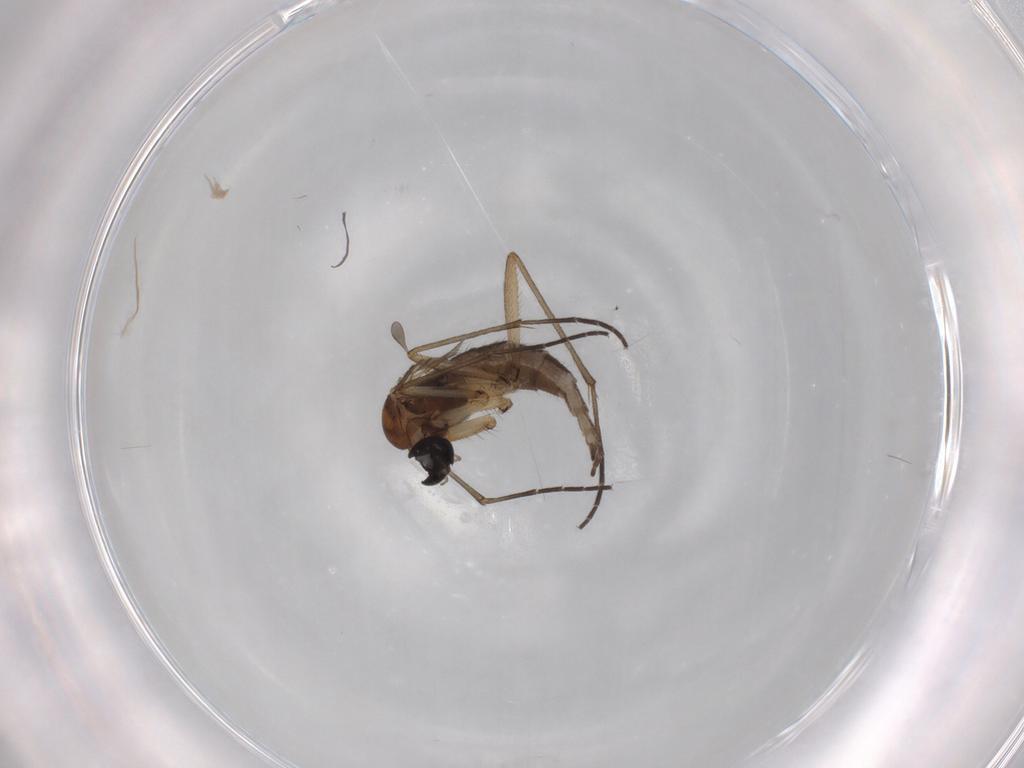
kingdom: Animalia
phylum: Arthropoda
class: Insecta
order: Diptera
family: Sciaridae
